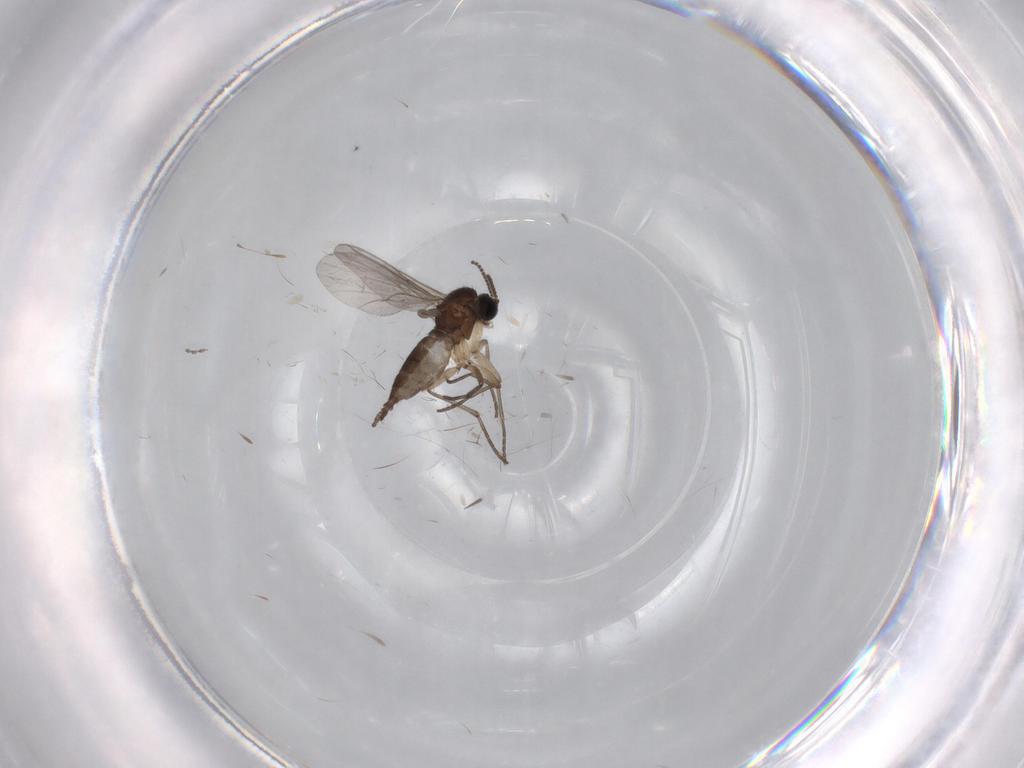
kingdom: Animalia
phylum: Arthropoda
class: Insecta
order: Diptera
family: Sciaridae
